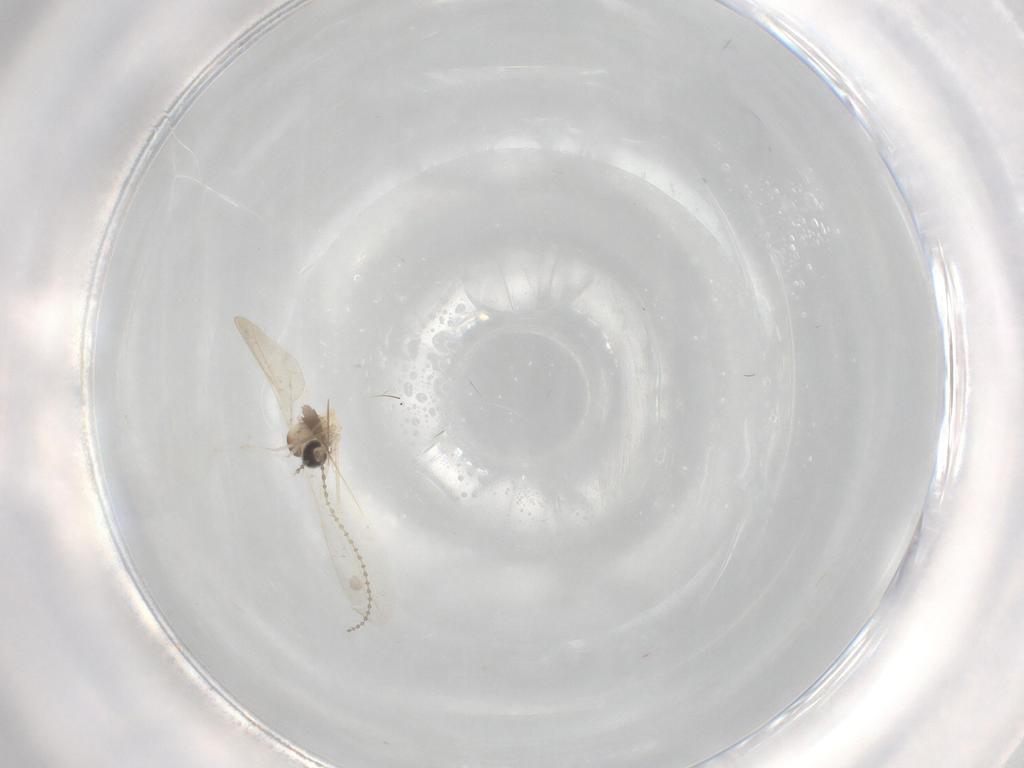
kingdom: Animalia
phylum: Arthropoda
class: Insecta
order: Diptera
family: Cecidomyiidae
